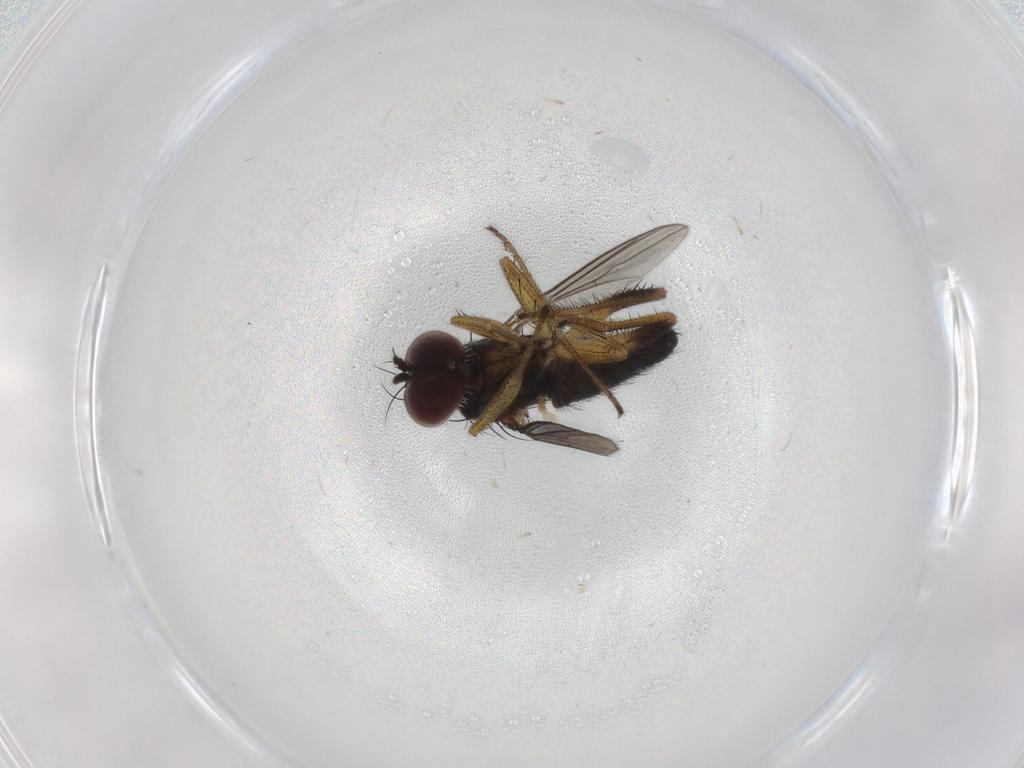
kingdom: Animalia
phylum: Arthropoda
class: Insecta
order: Diptera
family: Dolichopodidae
